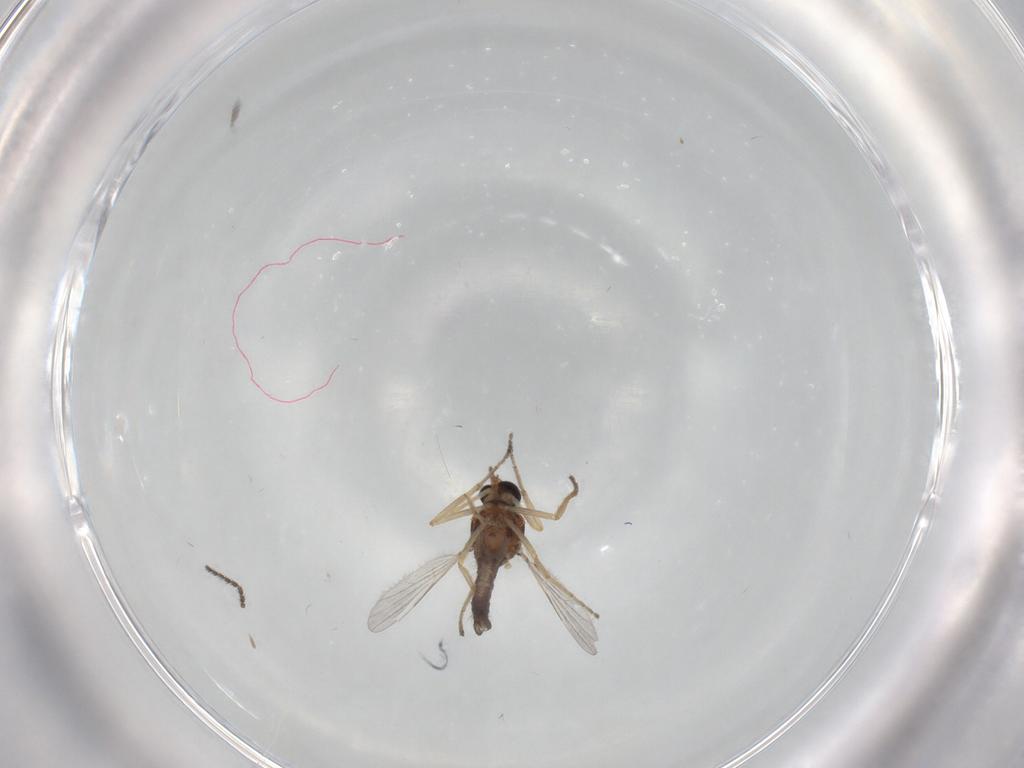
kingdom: Animalia
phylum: Arthropoda
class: Insecta
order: Diptera
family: Ceratopogonidae
